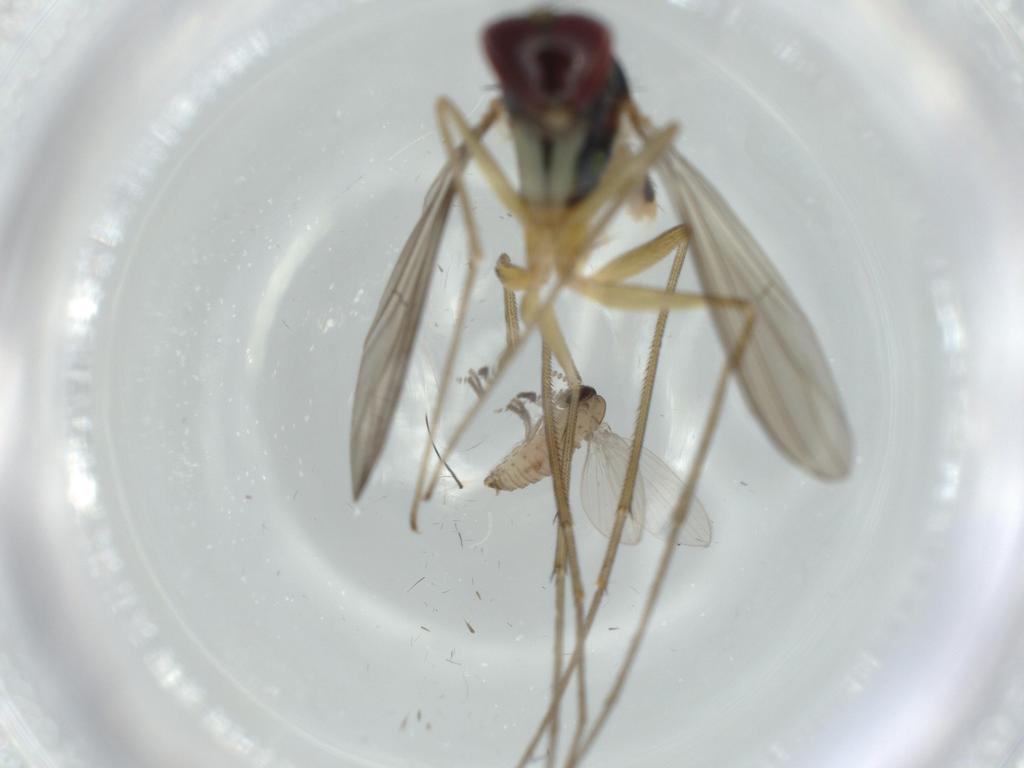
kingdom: Animalia
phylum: Arthropoda
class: Insecta
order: Diptera
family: Dolichopodidae
